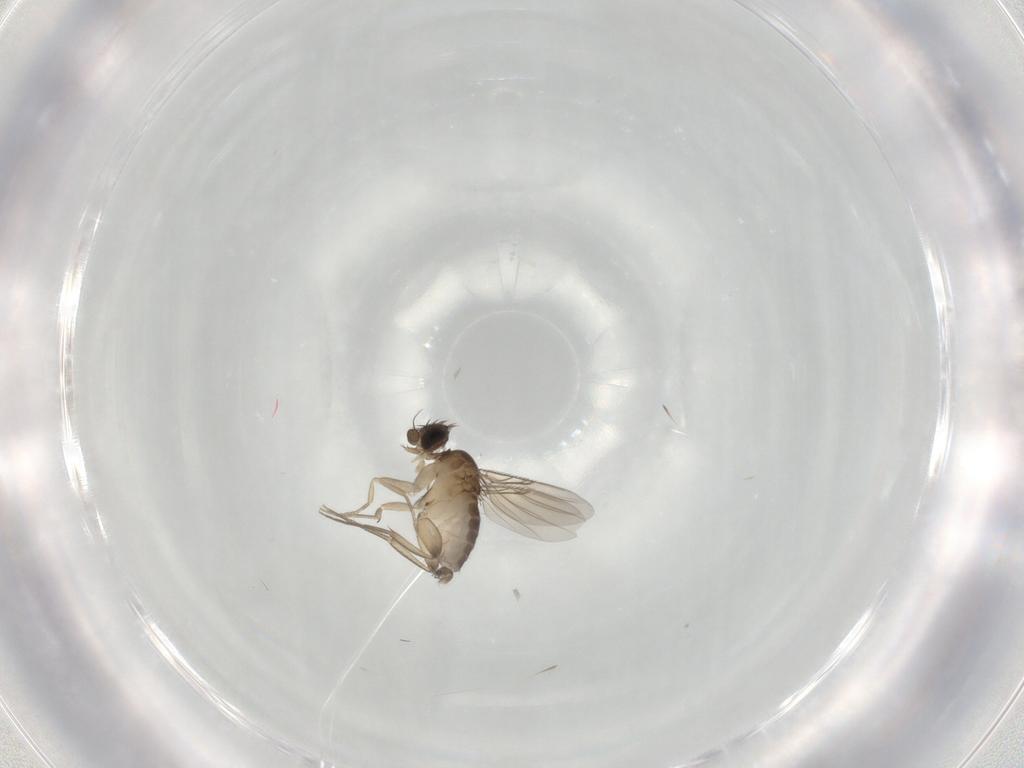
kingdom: Animalia
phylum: Arthropoda
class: Insecta
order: Diptera
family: Phoridae
